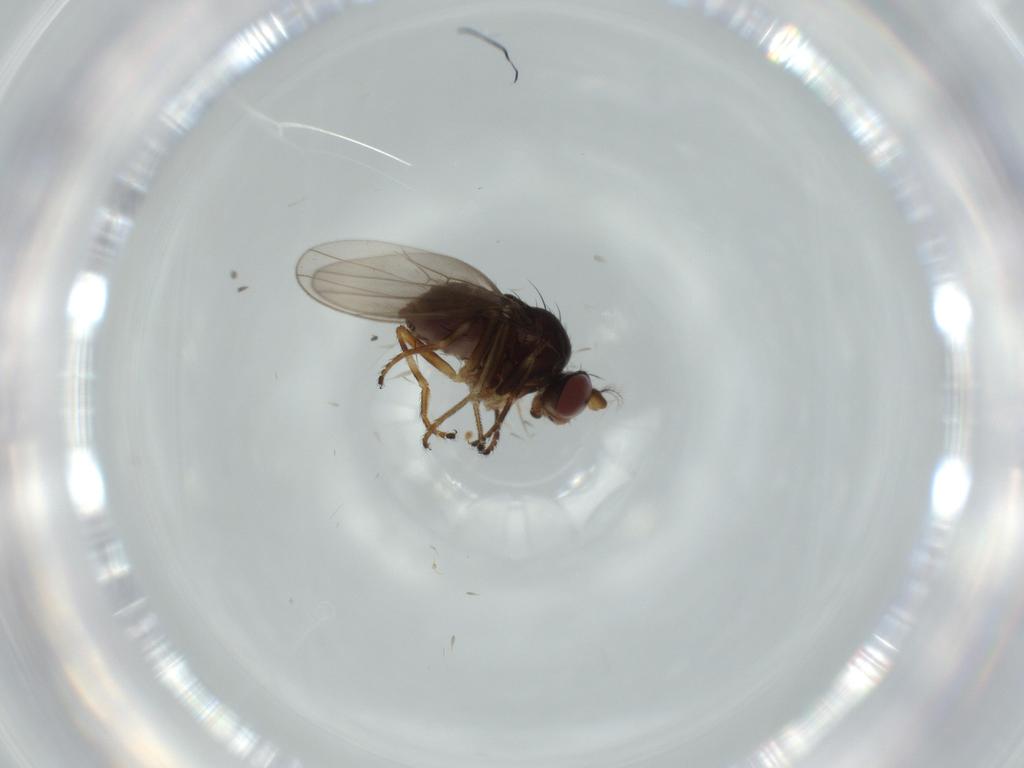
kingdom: Animalia
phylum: Arthropoda
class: Insecta
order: Diptera
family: Ephydridae
